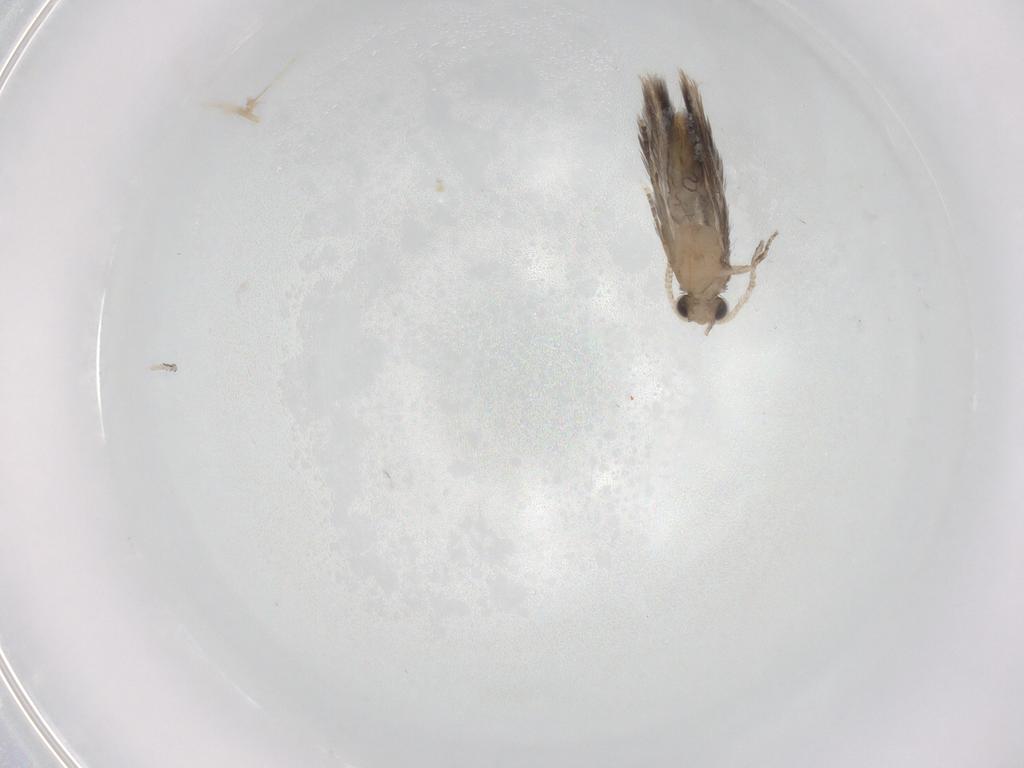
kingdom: Animalia
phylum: Arthropoda
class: Insecta
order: Trichoptera
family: Hydroptilidae
